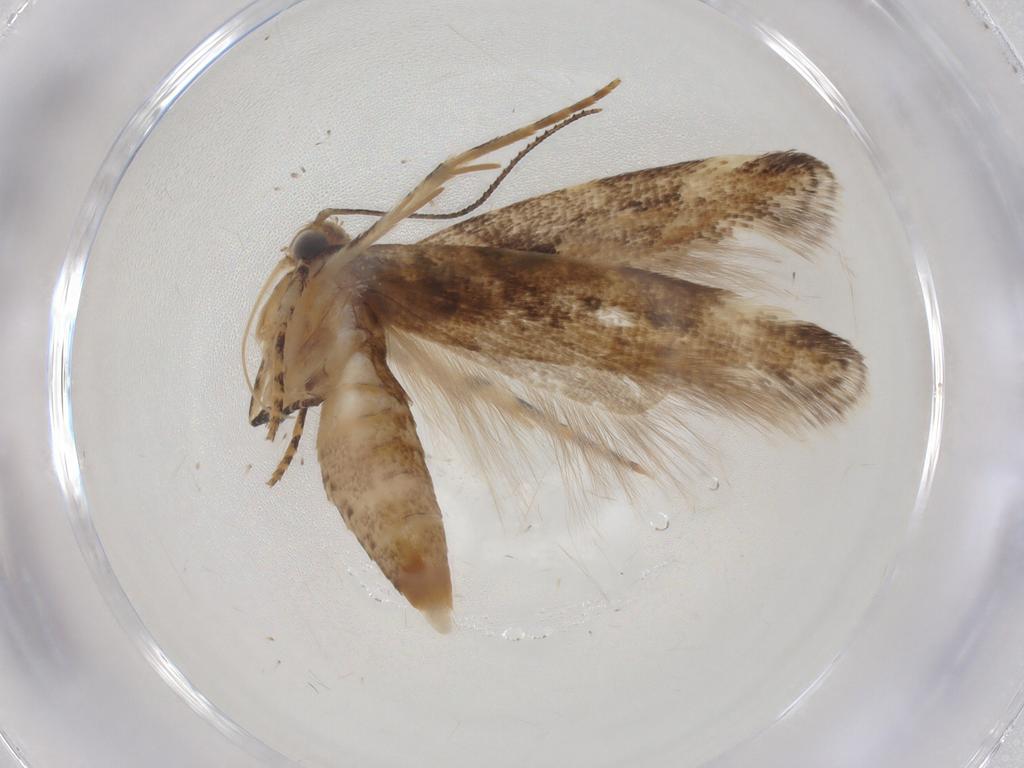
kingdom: Animalia
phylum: Arthropoda
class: Insecta
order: Lepidoptera
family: Gelechiidae
